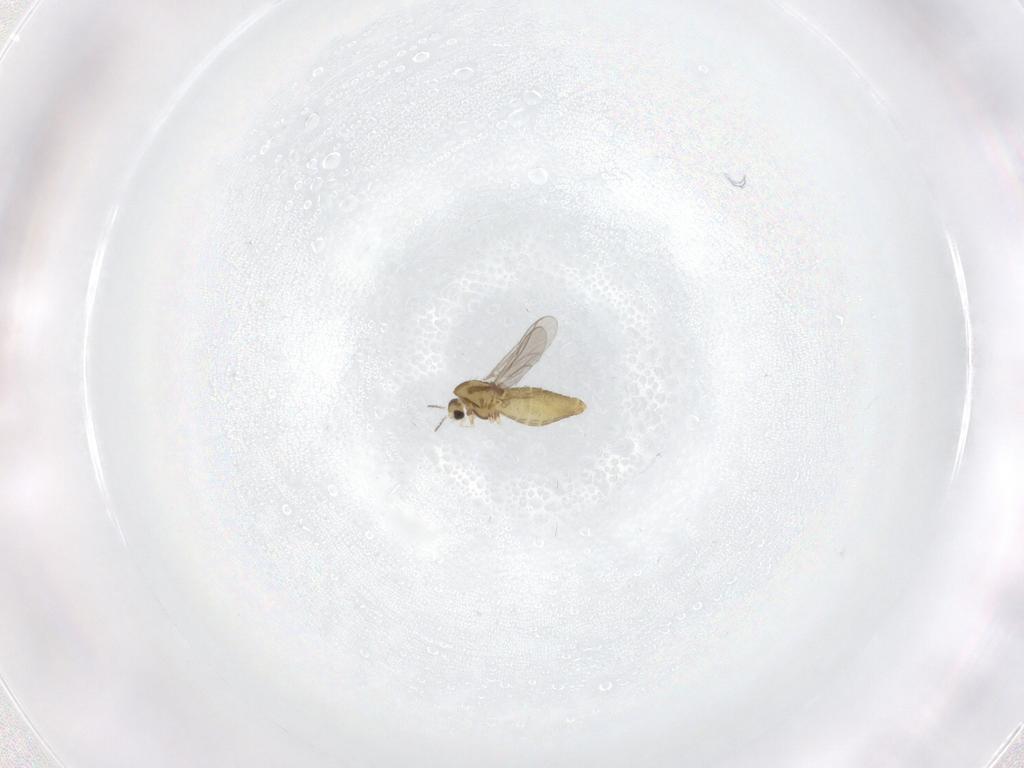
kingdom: Animalia
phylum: Arthropoda
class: Insecta
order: Diptera
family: Chironomidae
